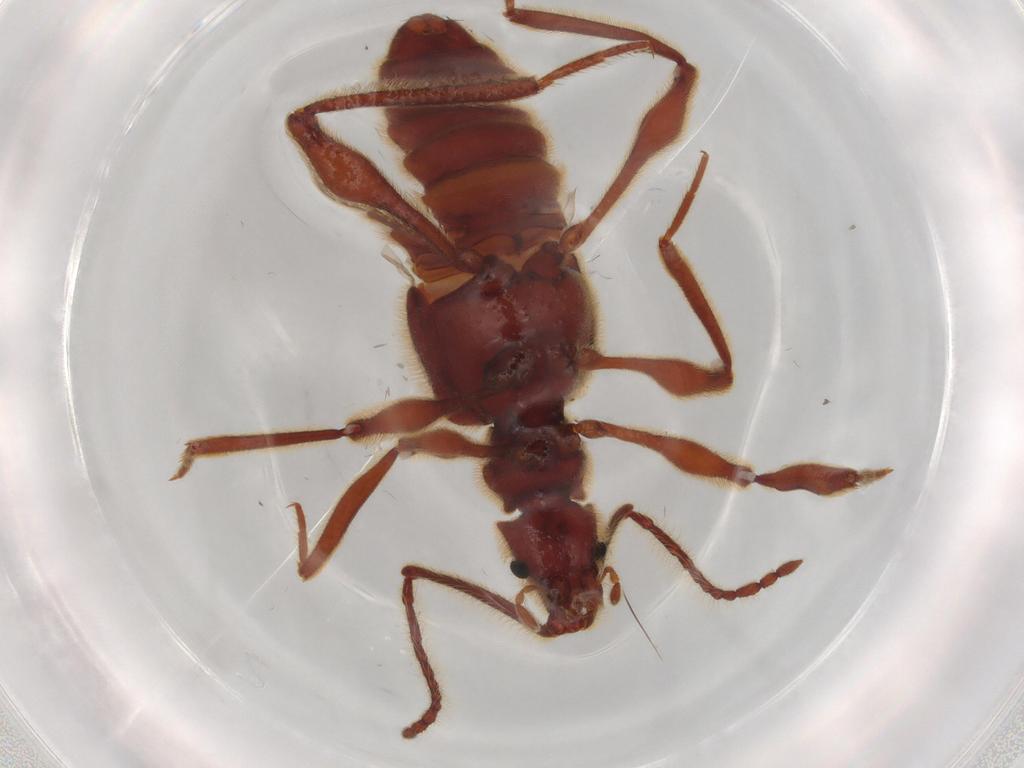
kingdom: Animalia
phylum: Arthropoda
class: Insecta
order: Coleoptera
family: Staphylinidae
